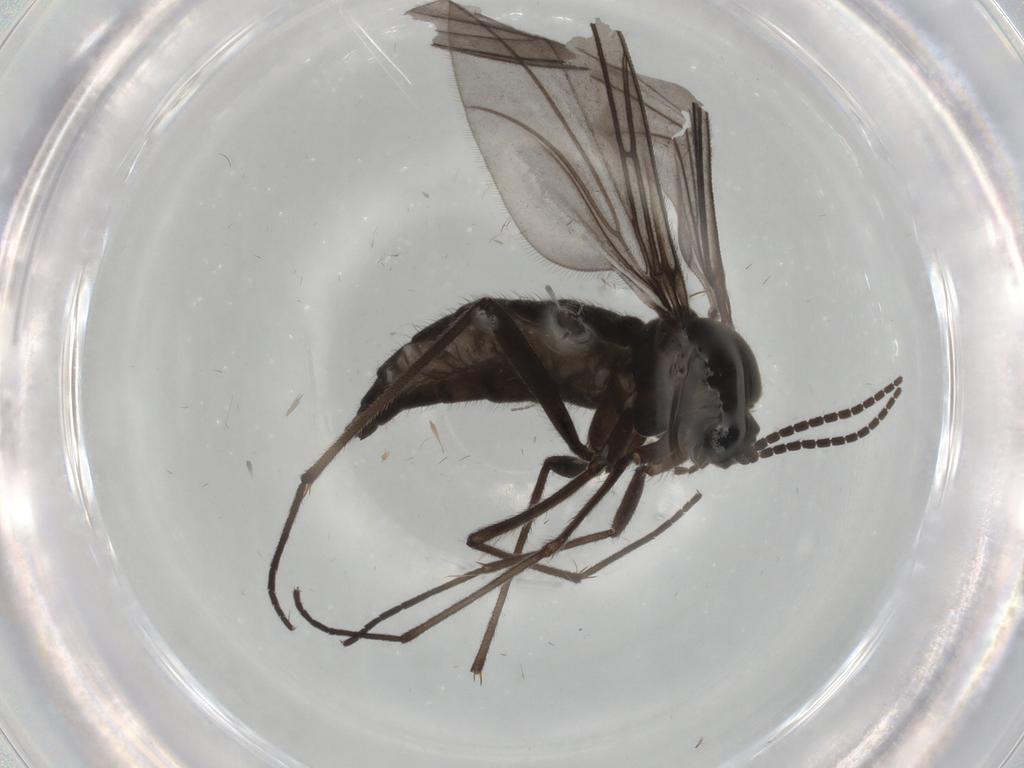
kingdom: Animalia
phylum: Arthropoda
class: Insecta
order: Diptera
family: Cecidomyiidae
